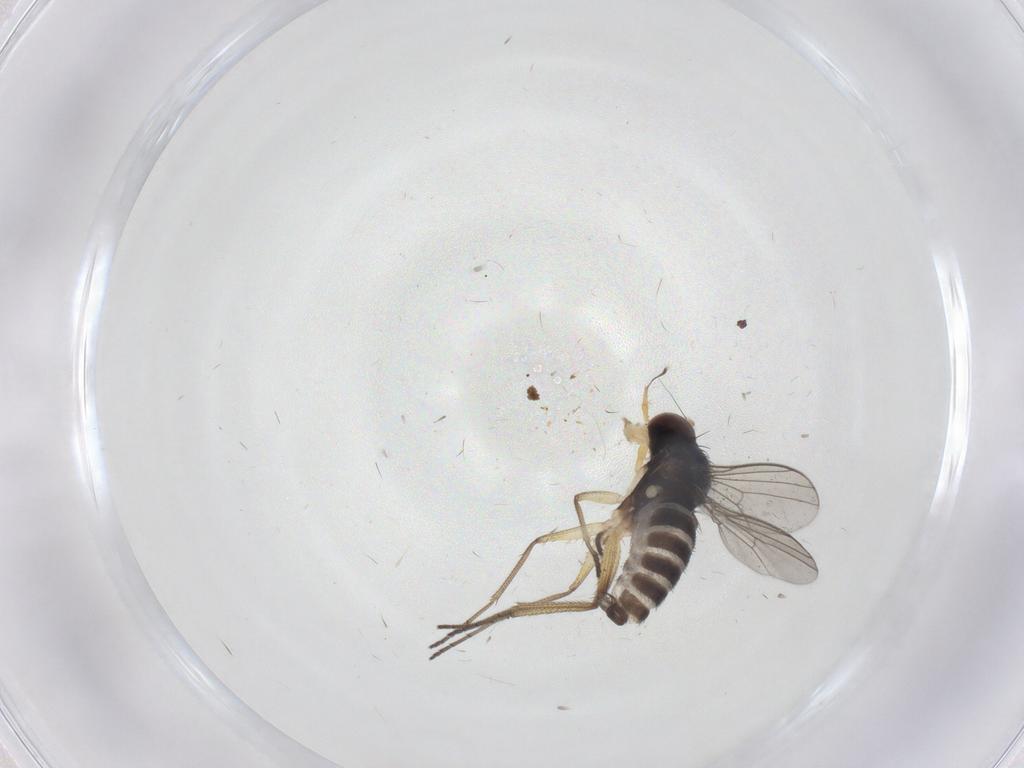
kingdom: Animalia
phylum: Arthropoda
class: Insecta
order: Diptera
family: Dolichopodidae
